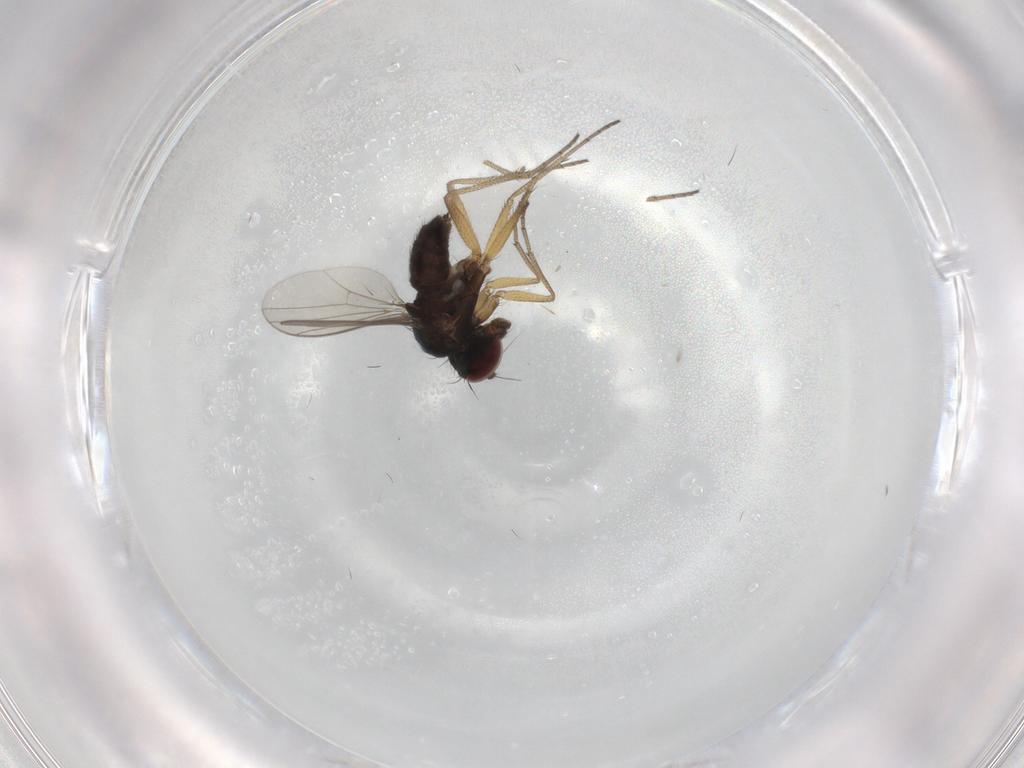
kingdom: Animalia
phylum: Arthropoda
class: Insecta
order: Diptera
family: Dolichopodidae
